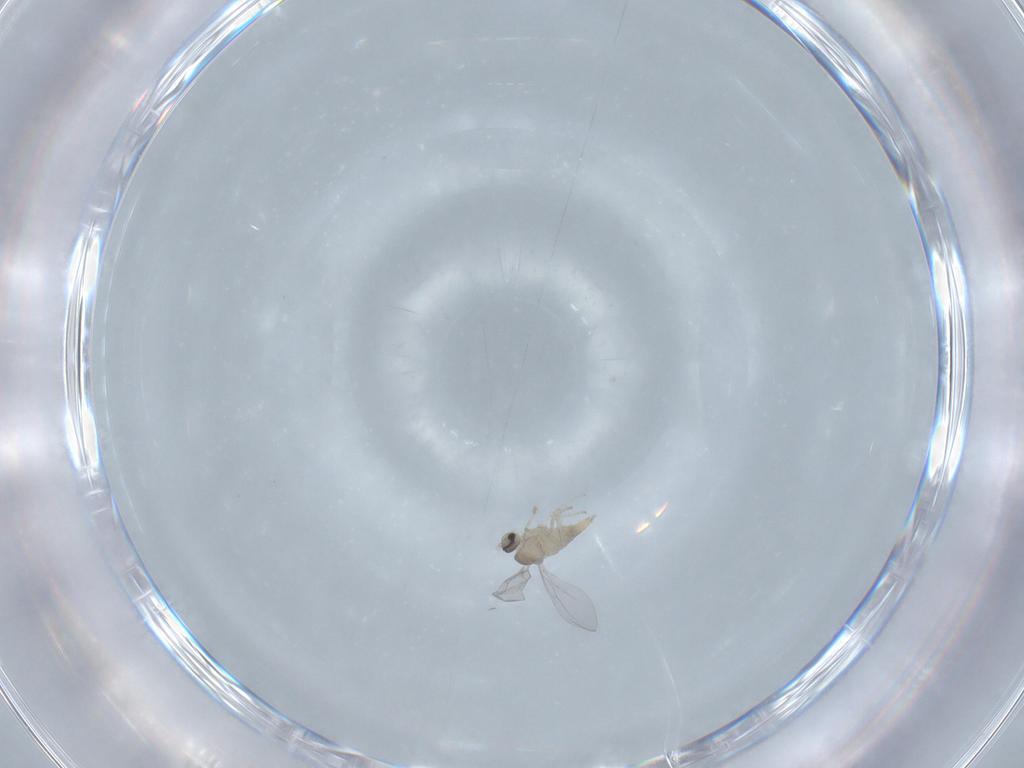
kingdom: Animalia
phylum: Arthropoda
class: Insecta
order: Diptera
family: Cecidomyiidae
